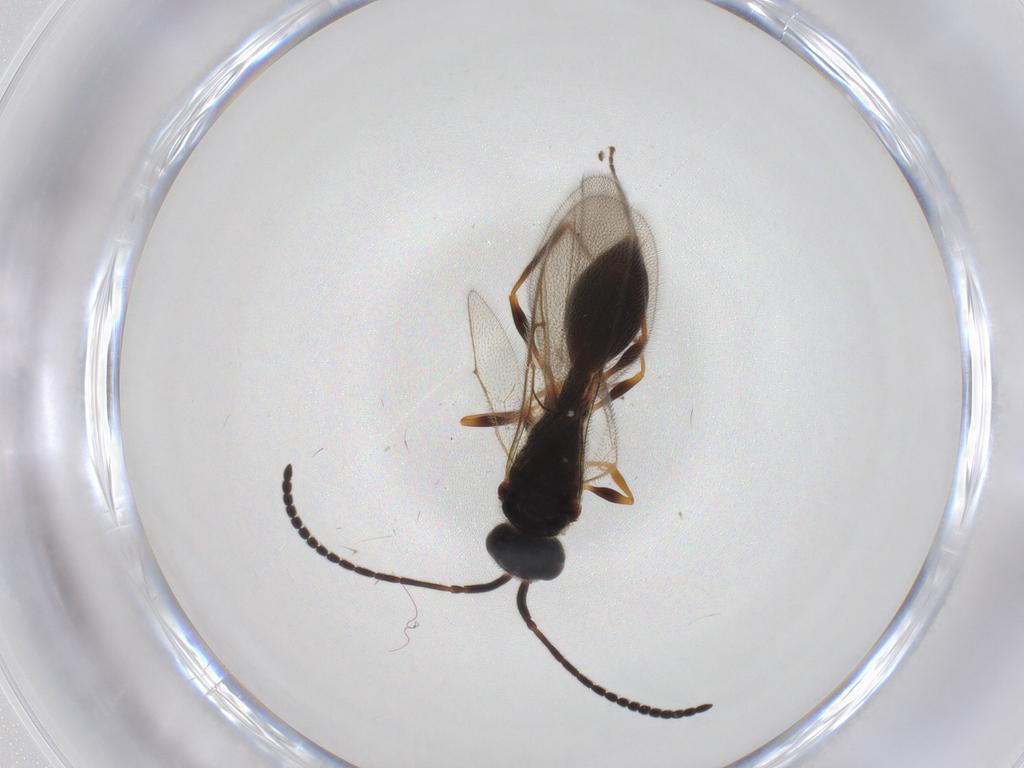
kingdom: Animalia
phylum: Arthropoda
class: Insecta
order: Hymenoptera
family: Diapriidae
